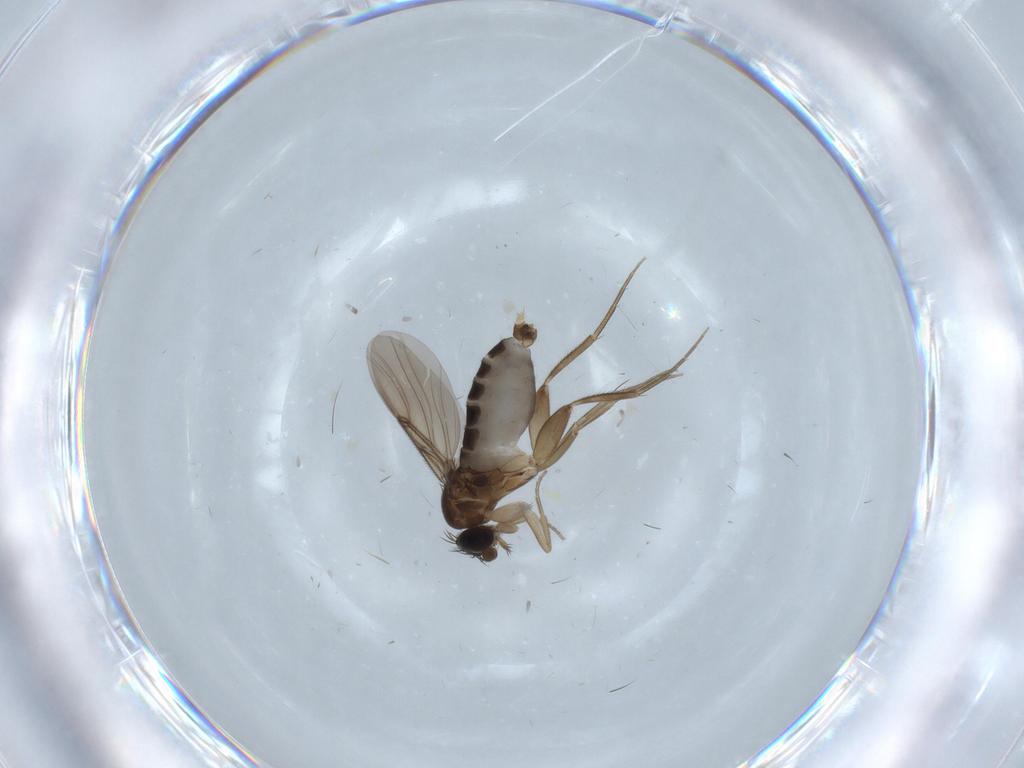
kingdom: Animalia
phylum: Arthropoda
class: Insecta
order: Diptera
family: Phoridae
